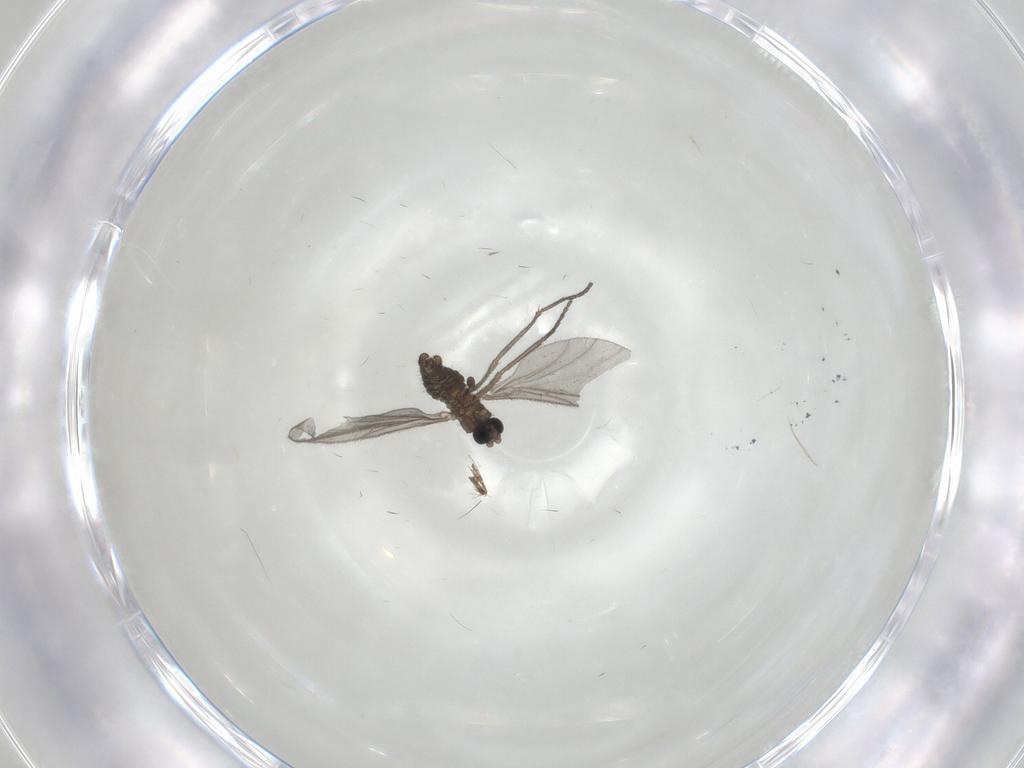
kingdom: Animalia
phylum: Arthropoda
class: Insecta
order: Diptera
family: Sciaridae
